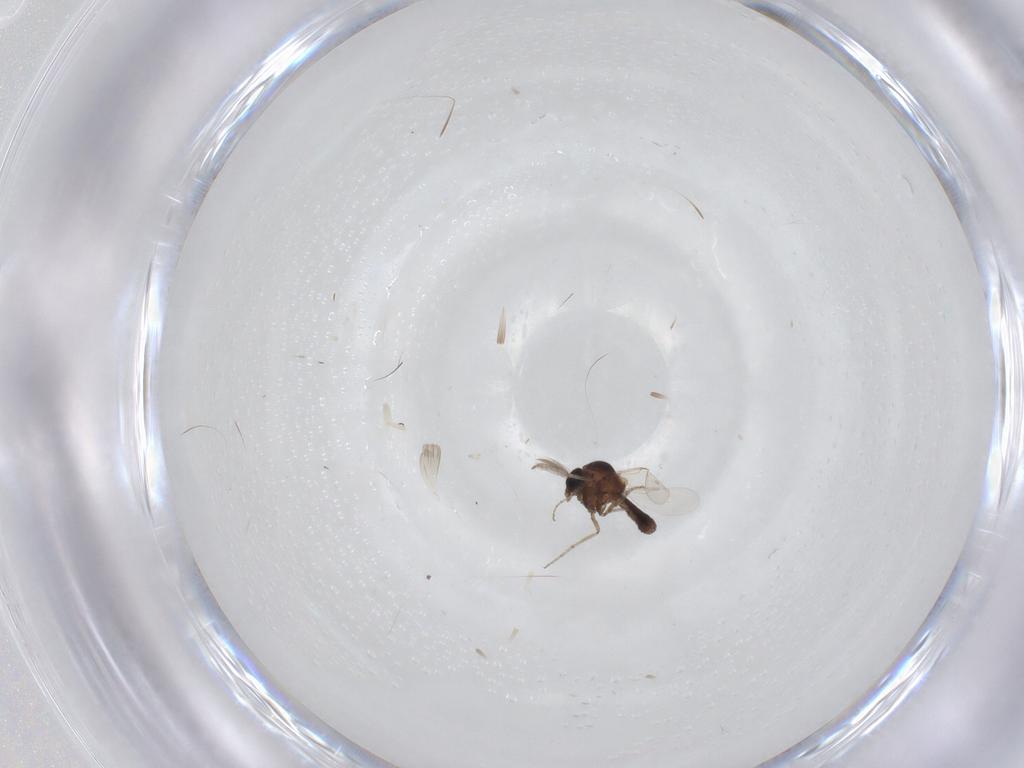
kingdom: Animalia
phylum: Arthropoda
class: Insecta
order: Diptera
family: Ceratopogonidae
